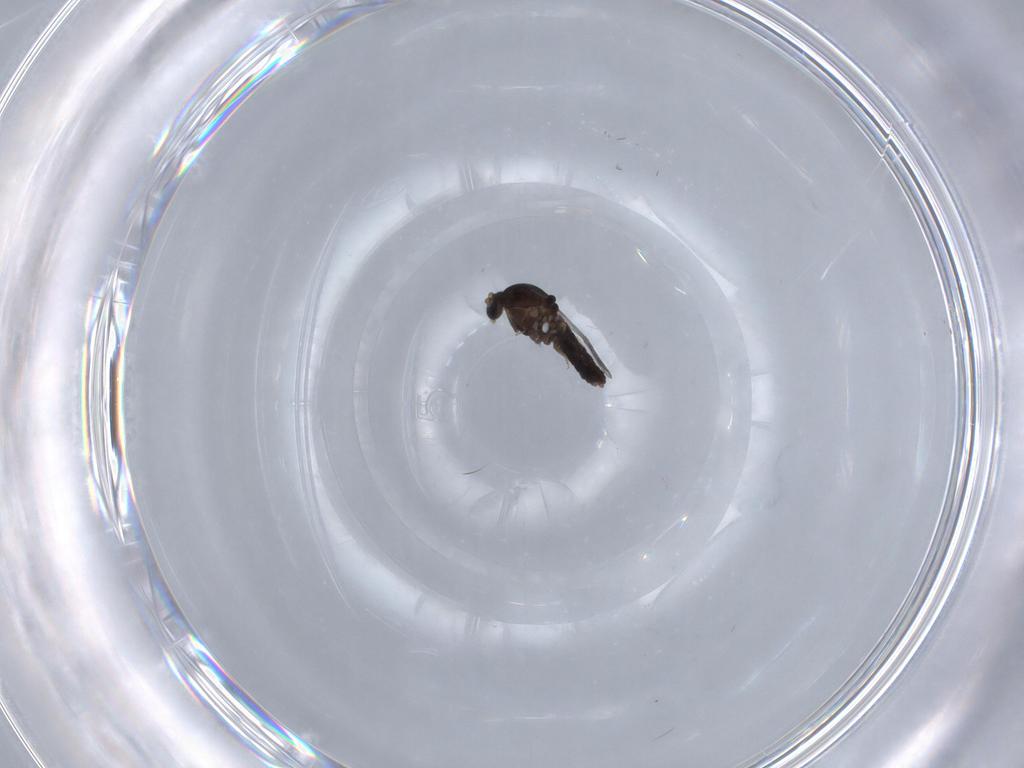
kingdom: Animalia
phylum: Arthropoda
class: Insecta
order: Diptera
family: Ceratopogonidae
